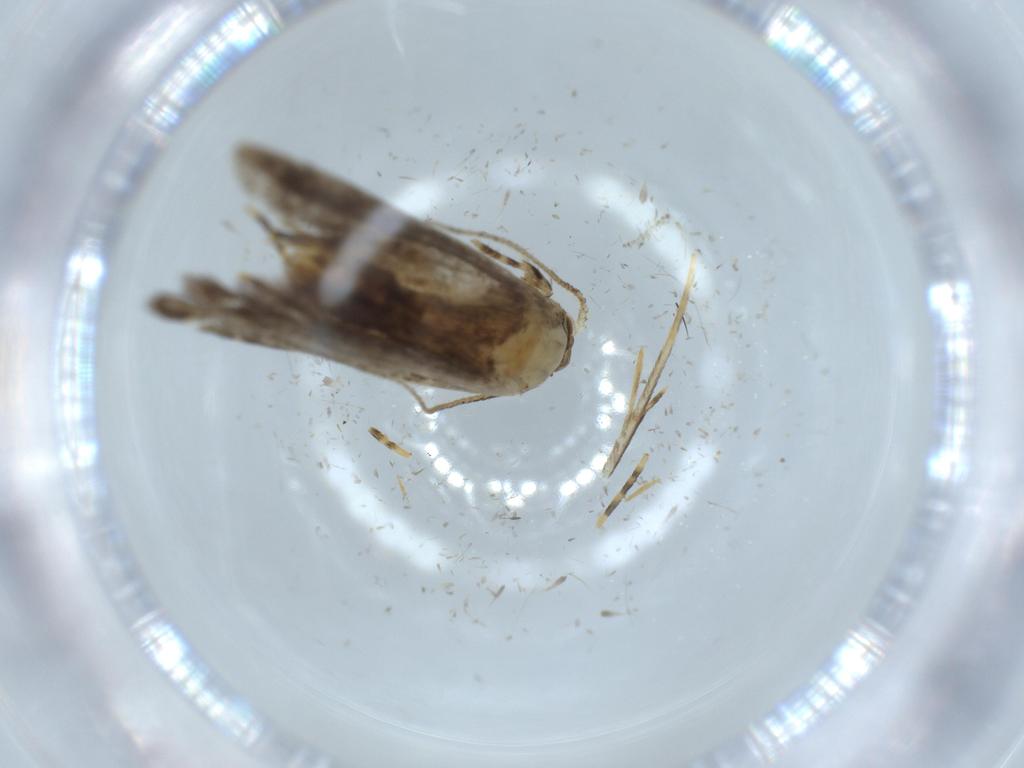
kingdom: Animalia
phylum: Arthropoda
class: Insecta
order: Lepidoptera
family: Dryadaulidae
